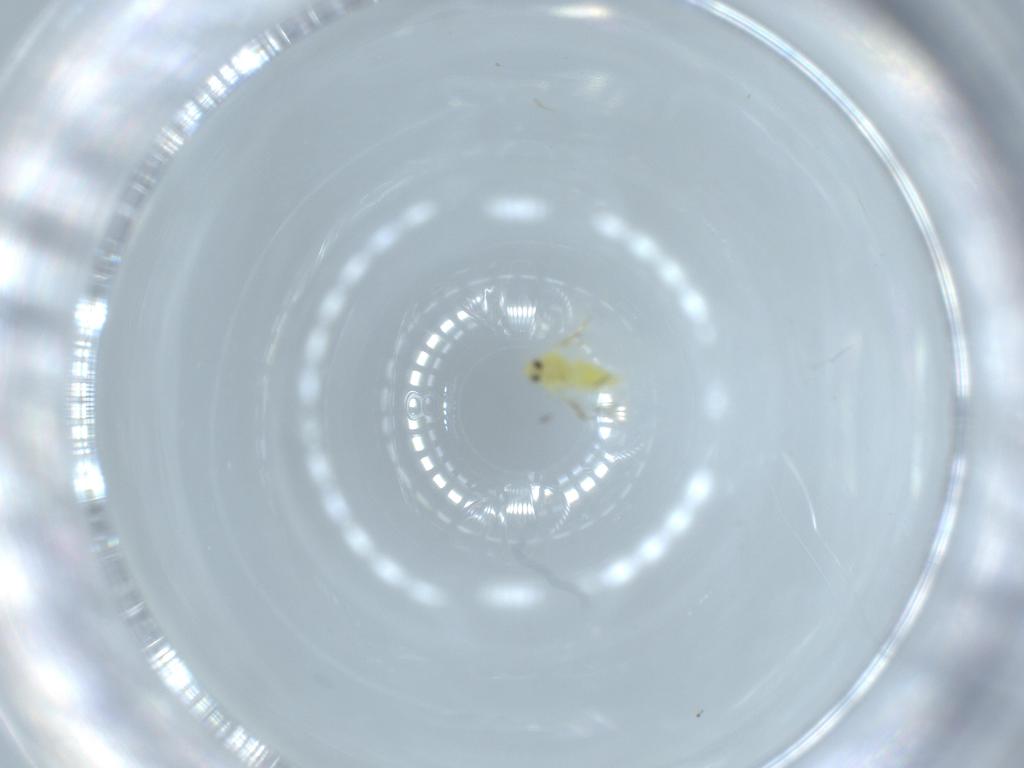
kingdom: Animalia
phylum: Arthropoda
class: Insecta
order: Hemiptera
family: Aleyrodidae
